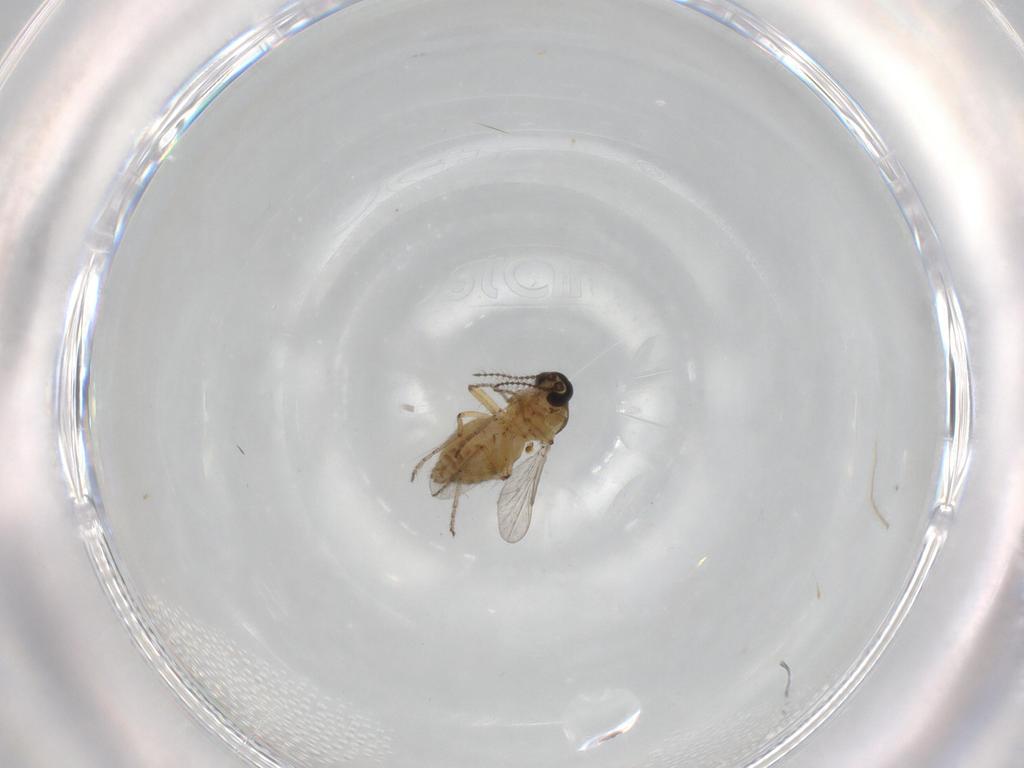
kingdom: Animalia
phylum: Arthropoda
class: Insecta
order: Diptera
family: Ceratopogonidae
